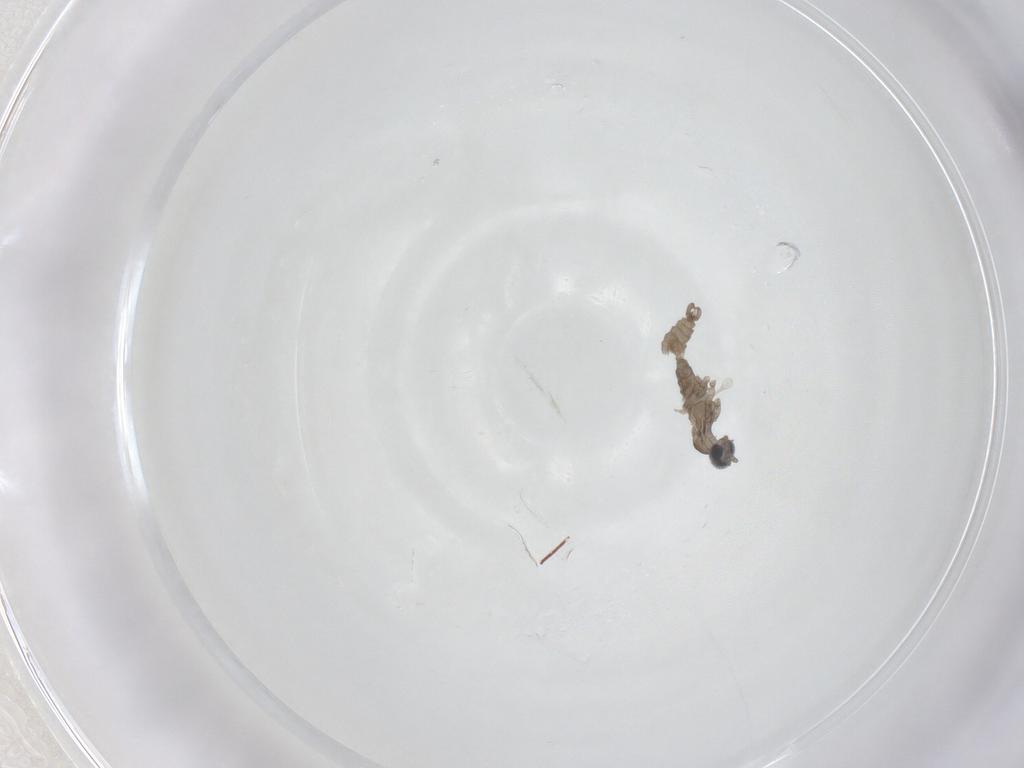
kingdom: Animalia
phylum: Arthropoda
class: Insecta
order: Diptera
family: Cecidomyiidae
